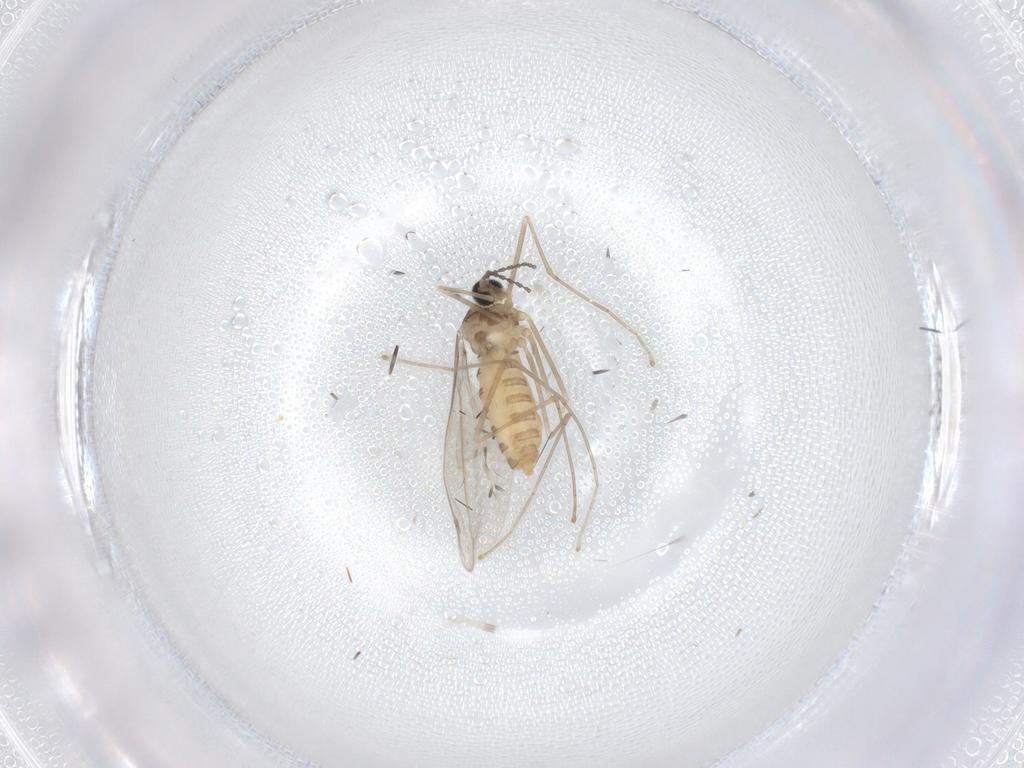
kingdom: Animalia
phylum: Arthropoda
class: Insecta
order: Diptera
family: Cecidomyiidae
